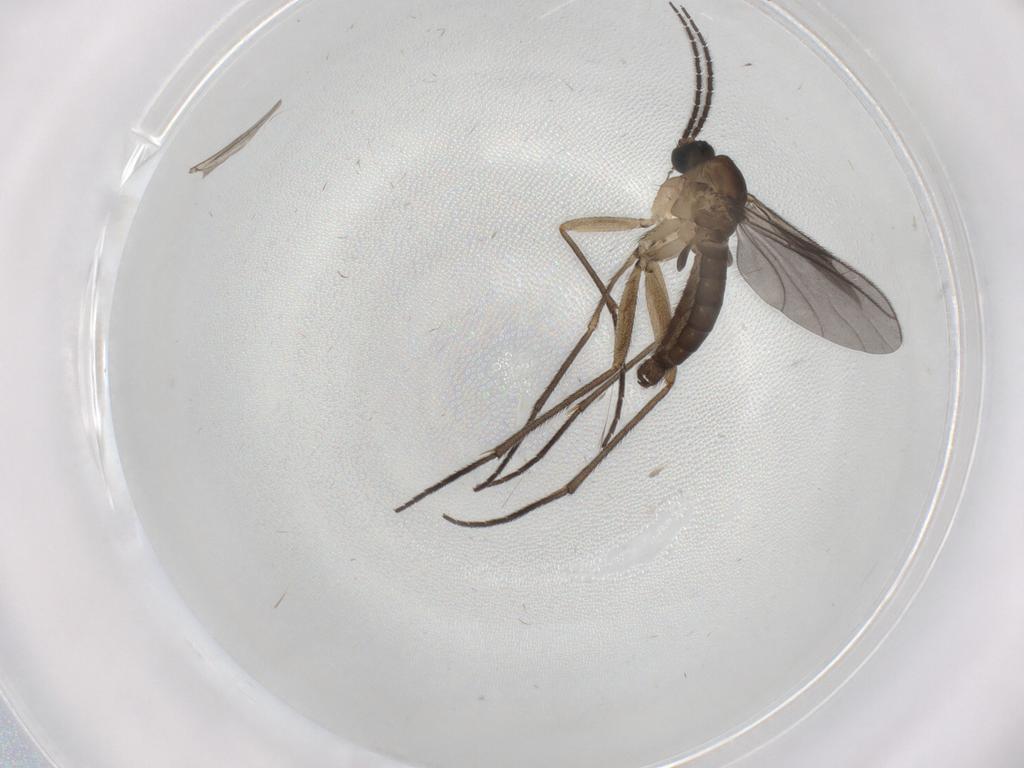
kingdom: Animalia
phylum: Arthropoda
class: Insecta
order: Diptera
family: Sciaridae
